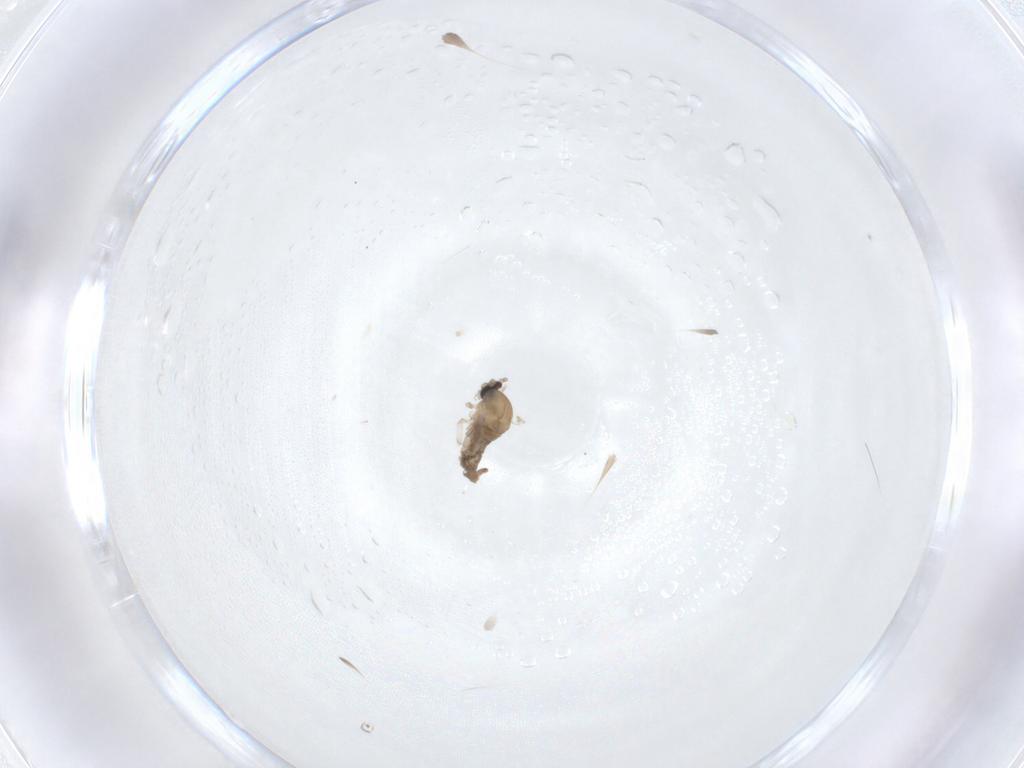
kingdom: Animalia
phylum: Arthropoda
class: Insecta
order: Diptera
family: Cecidomyiidae
